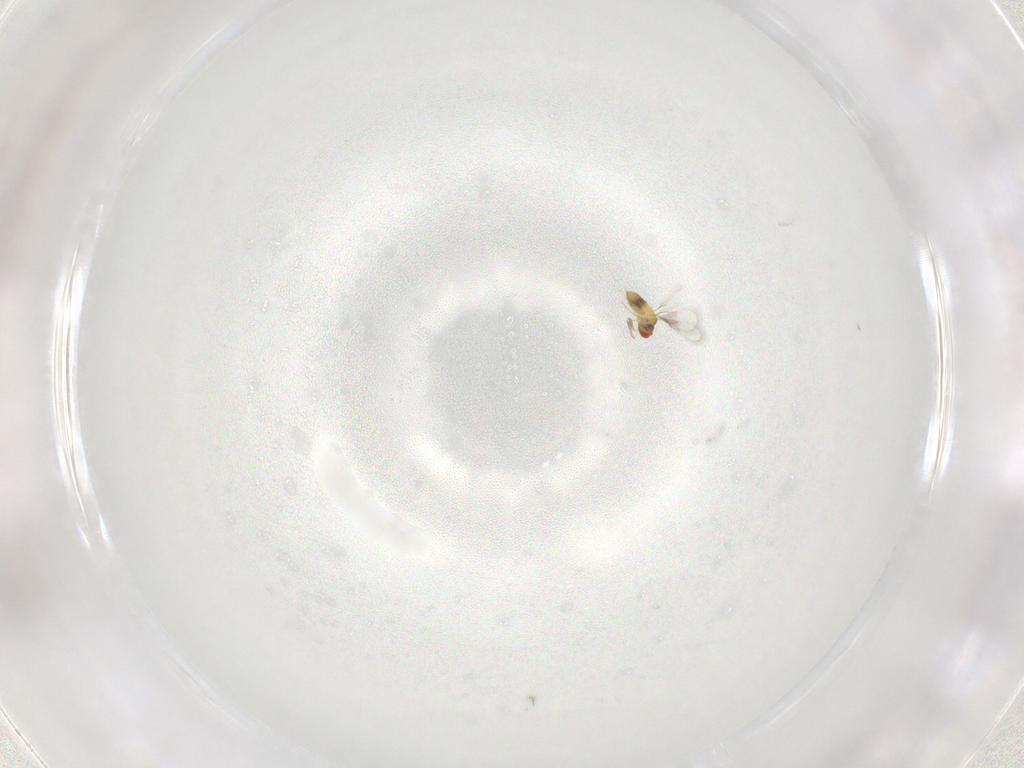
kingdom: Animalia
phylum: Arthropoda
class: Insecta
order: Hymenoptera
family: Trichogrammatidae
